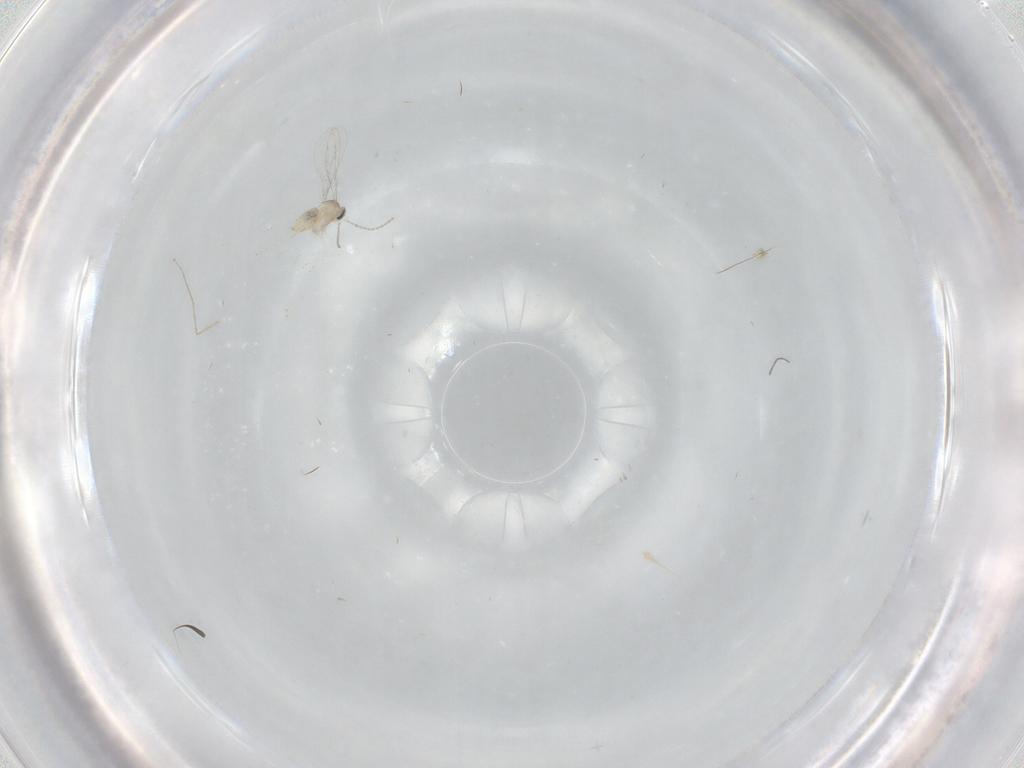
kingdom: Animalia
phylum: Arthropoda
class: Insecta
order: Diptera
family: Cecidomyiidae
